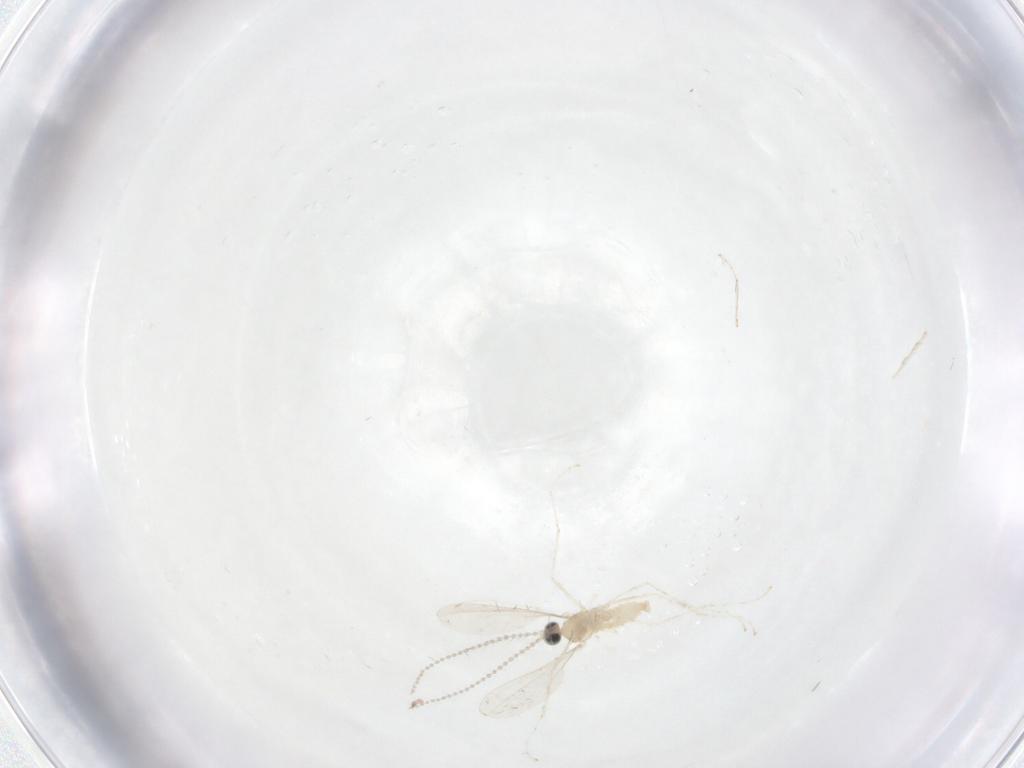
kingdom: Animalia
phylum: Arthropoda
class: Insecta
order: Diptera
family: Cecidomyiidae
